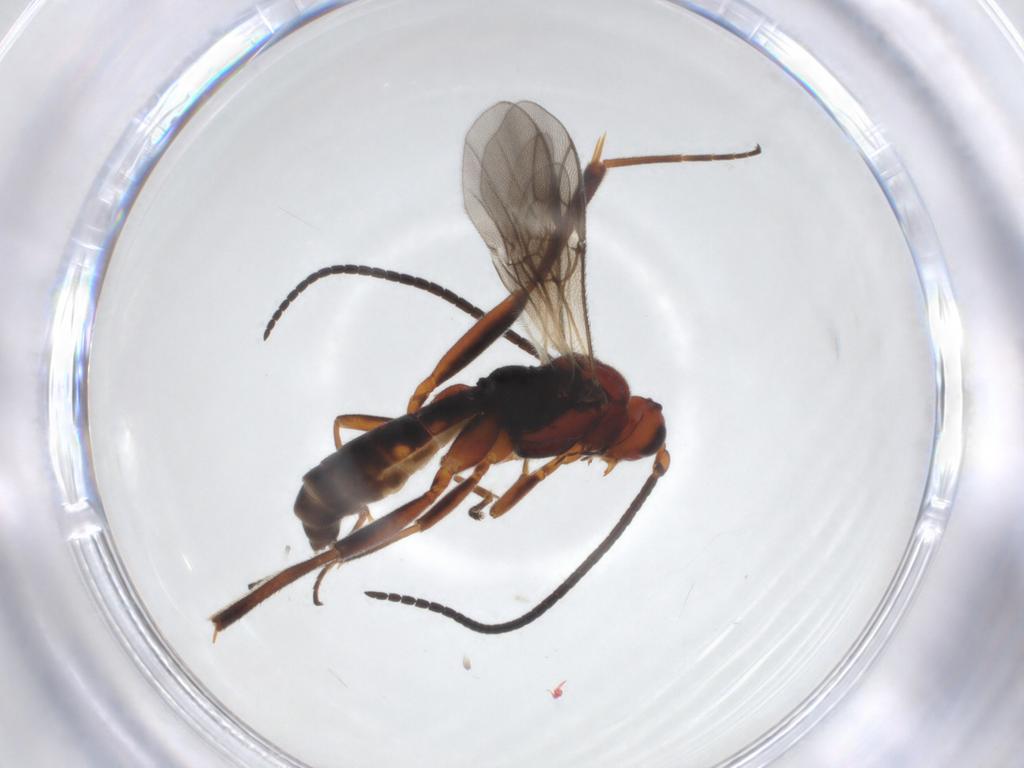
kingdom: Animalia
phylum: Arthropoda
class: Insecta
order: Hymenoptera
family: Braconidae
